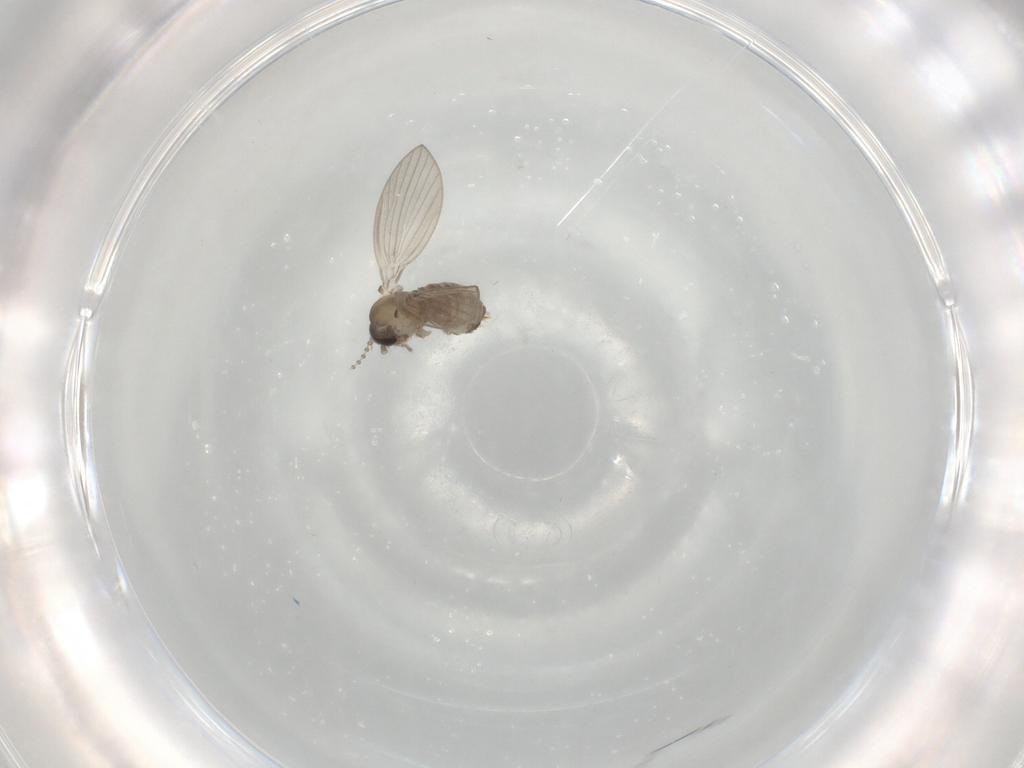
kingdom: Animalia
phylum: Arthropoda
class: Insecta
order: Diptera
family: Psychodidae
